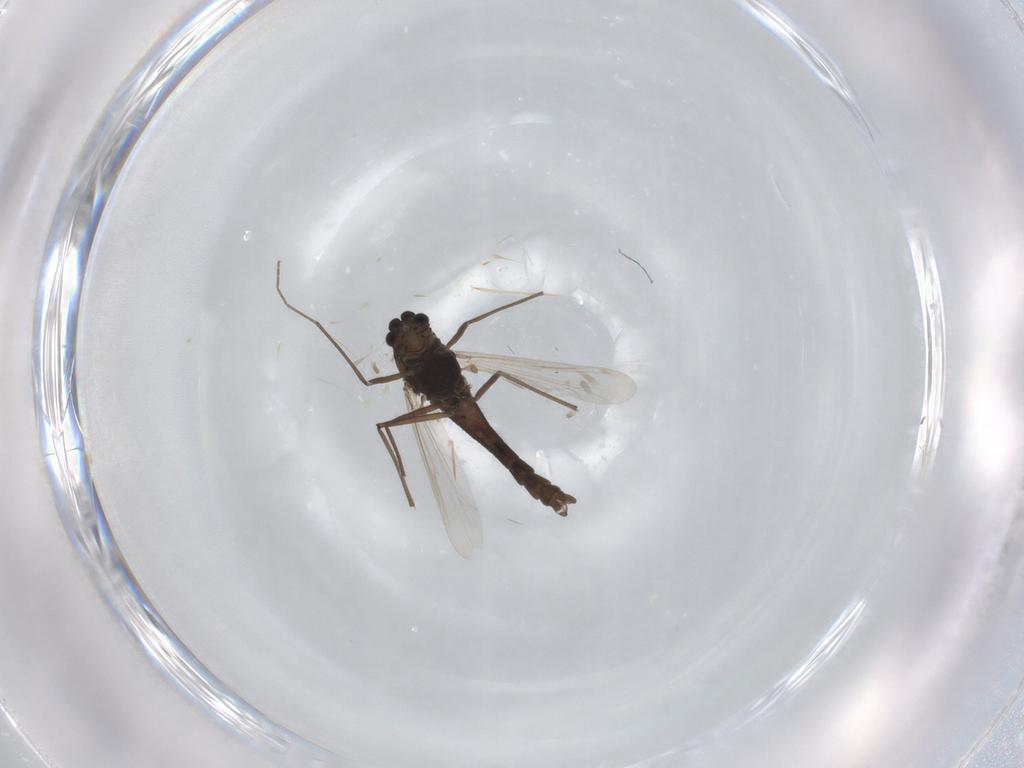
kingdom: Animalia
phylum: Arthropoda
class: Insecta
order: Diptera
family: Chironomidae
